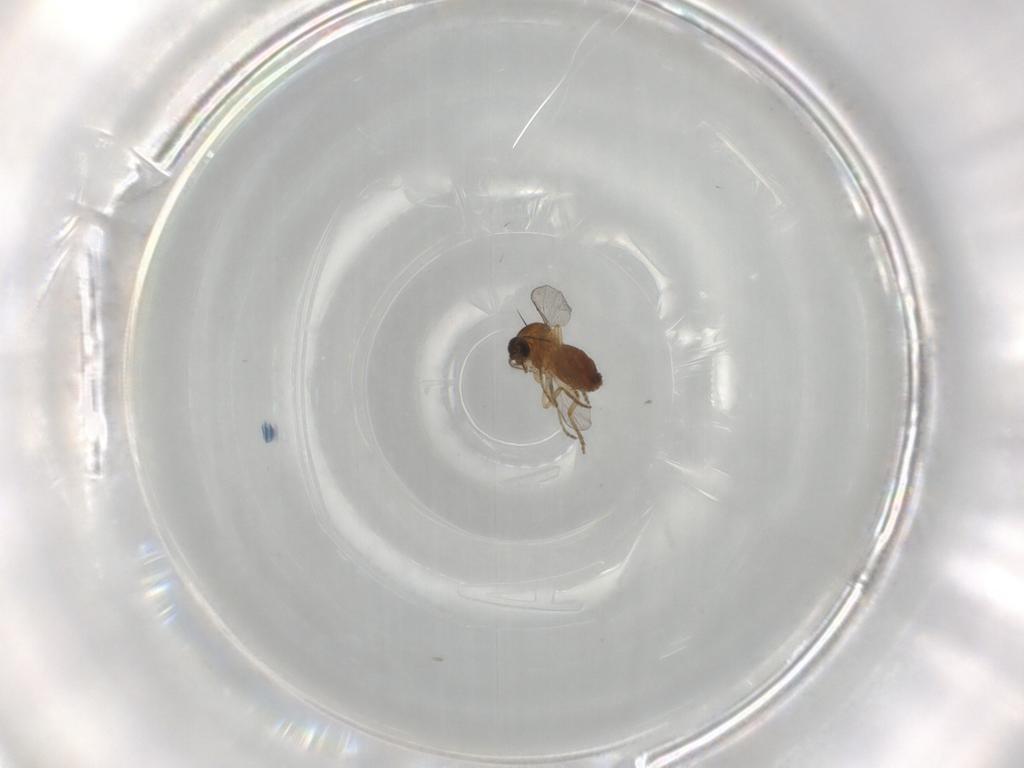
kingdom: Animalia
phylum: Arthropoda
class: Insecta
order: Diptera
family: Ceratopogonidae
